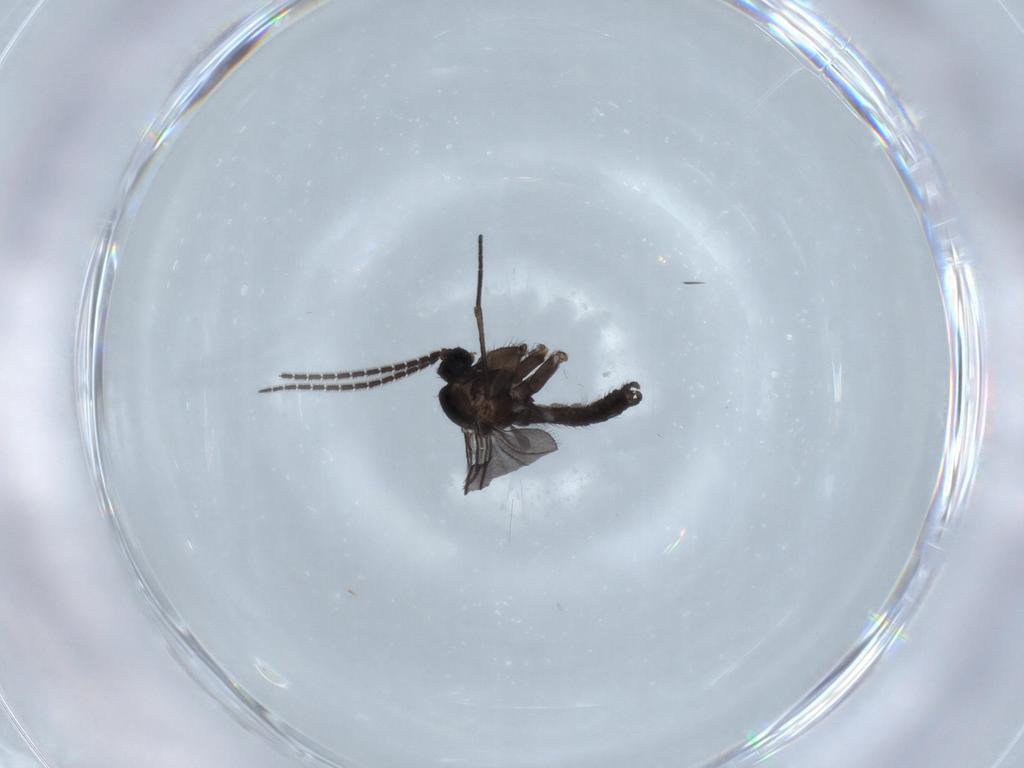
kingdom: Animalia
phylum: Arthropoda
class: Insecta
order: Diptera
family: Sciaridae
